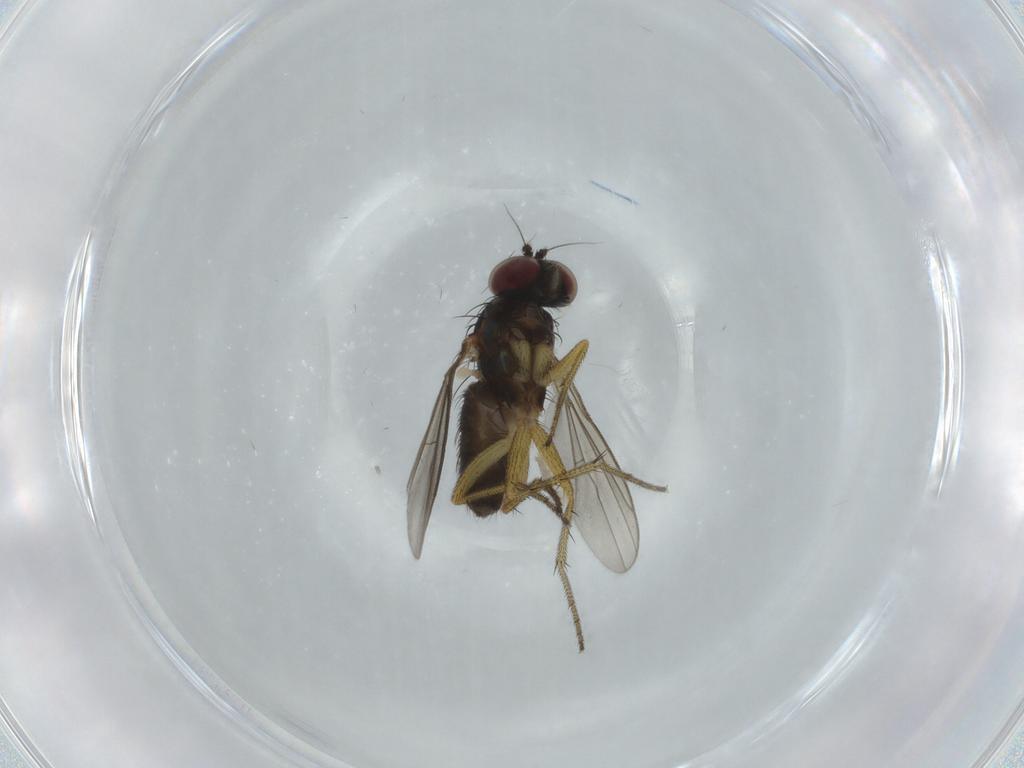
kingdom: Animalia
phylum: Arthropoda
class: Insecta
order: Diptera
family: Dolichopodidae
